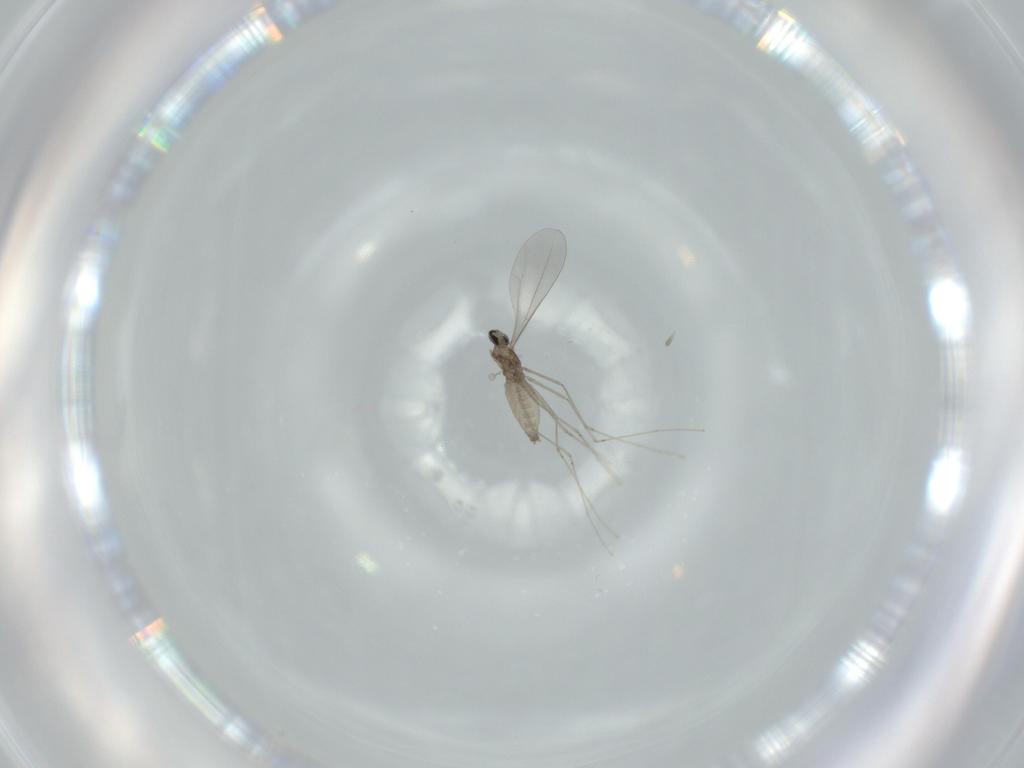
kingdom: Animalia
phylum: Arthropoda
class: Insecta
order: Diptera
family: Cecidomyiidae
